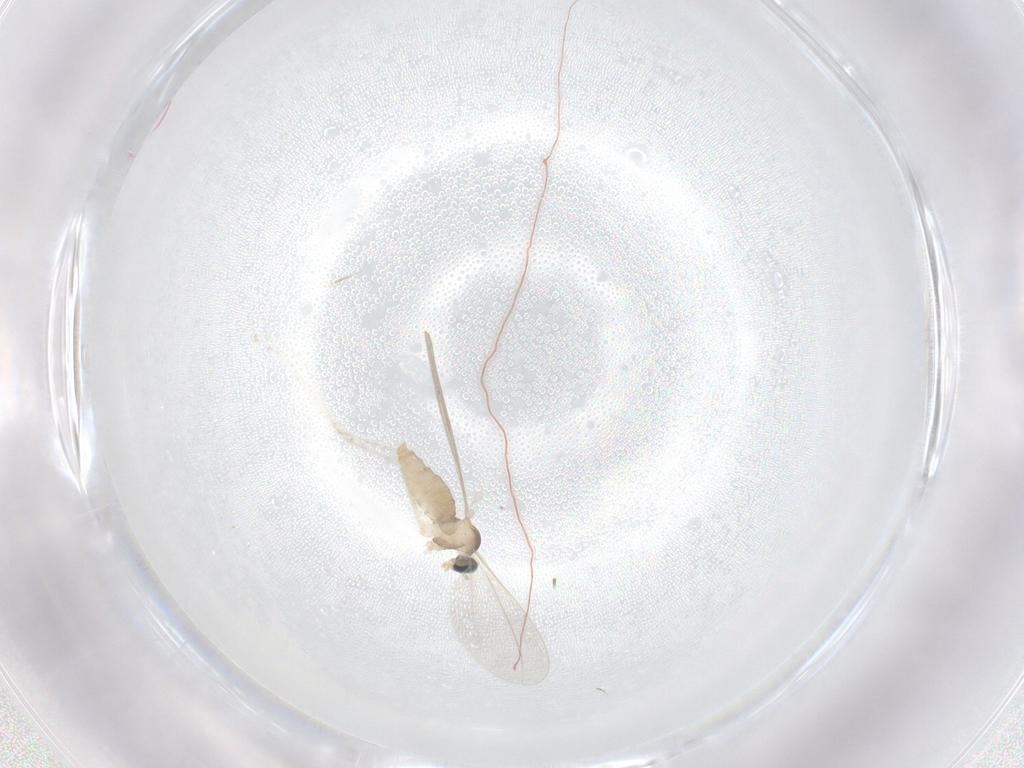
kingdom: Animalia
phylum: Arthropoda
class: Insecta
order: Diptera
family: Cecidomyiidae
